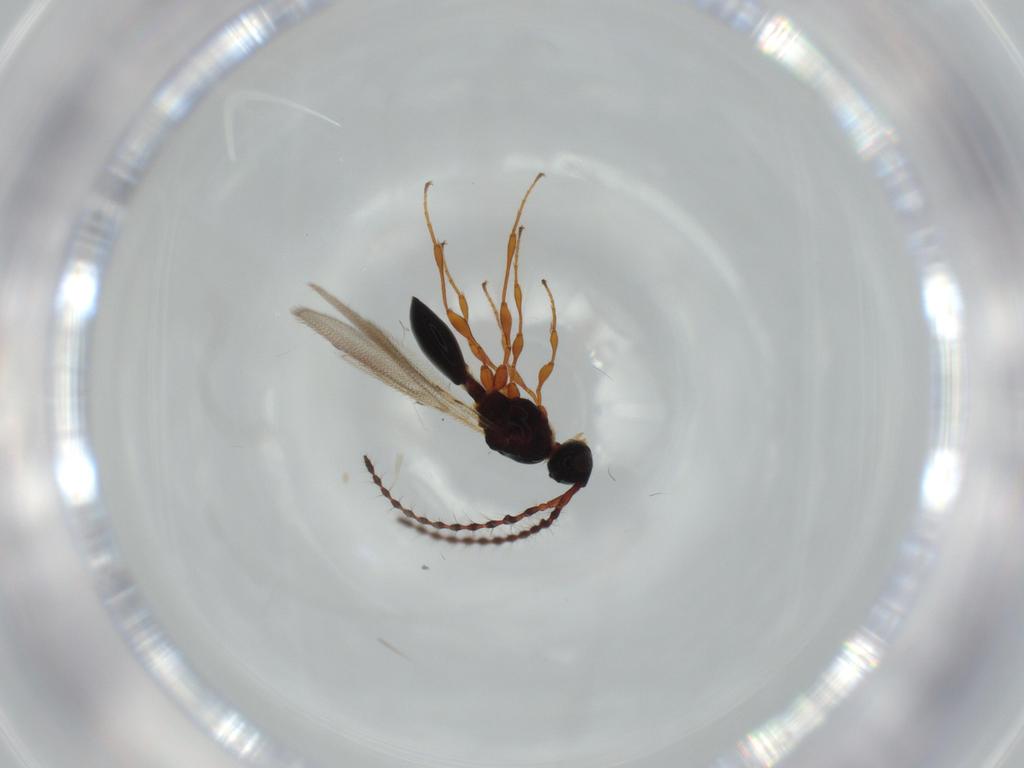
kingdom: Animalia
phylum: Arthropoda
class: Insecta
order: Hymenoptera
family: Diapriidae
